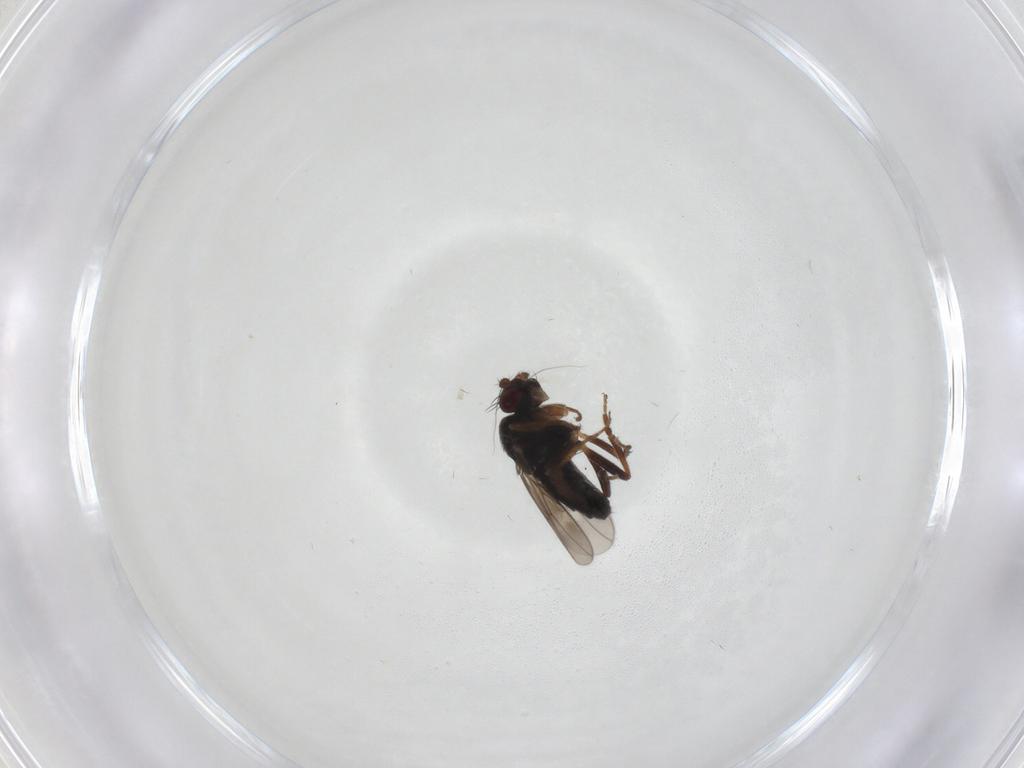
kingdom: Animalia
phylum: Arthropoda
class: Insecta
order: Diptera
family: Sphaeroceridae
